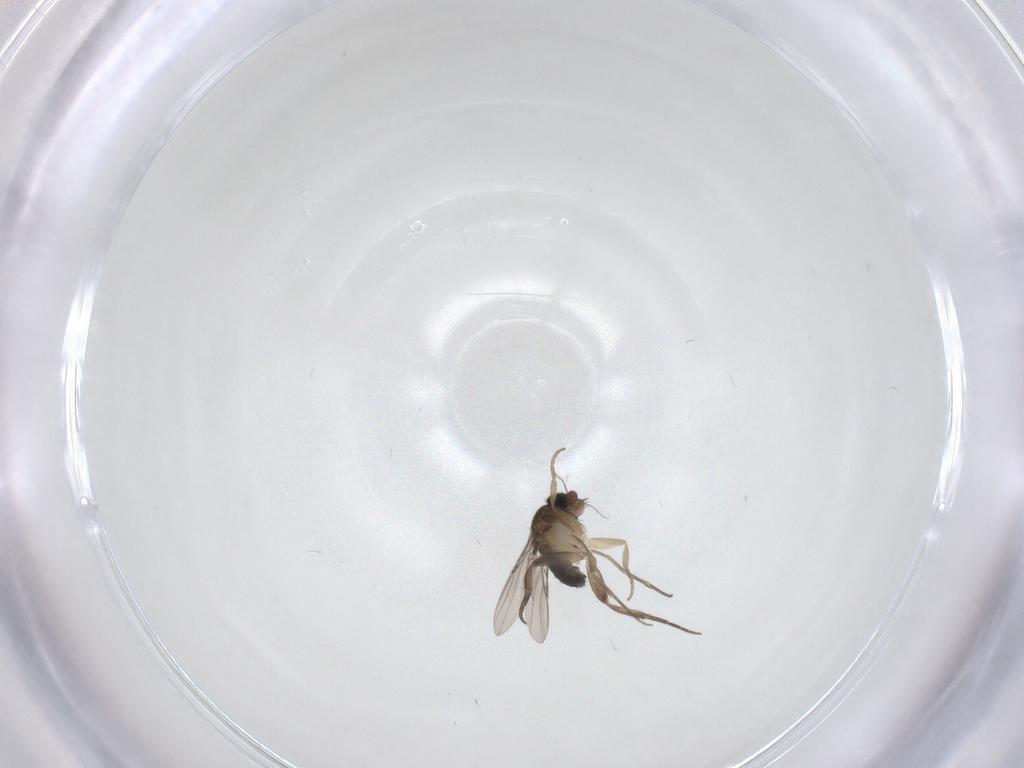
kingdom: Animalia
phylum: Arthropoda
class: Insecta
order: Diptera
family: Phoridae
